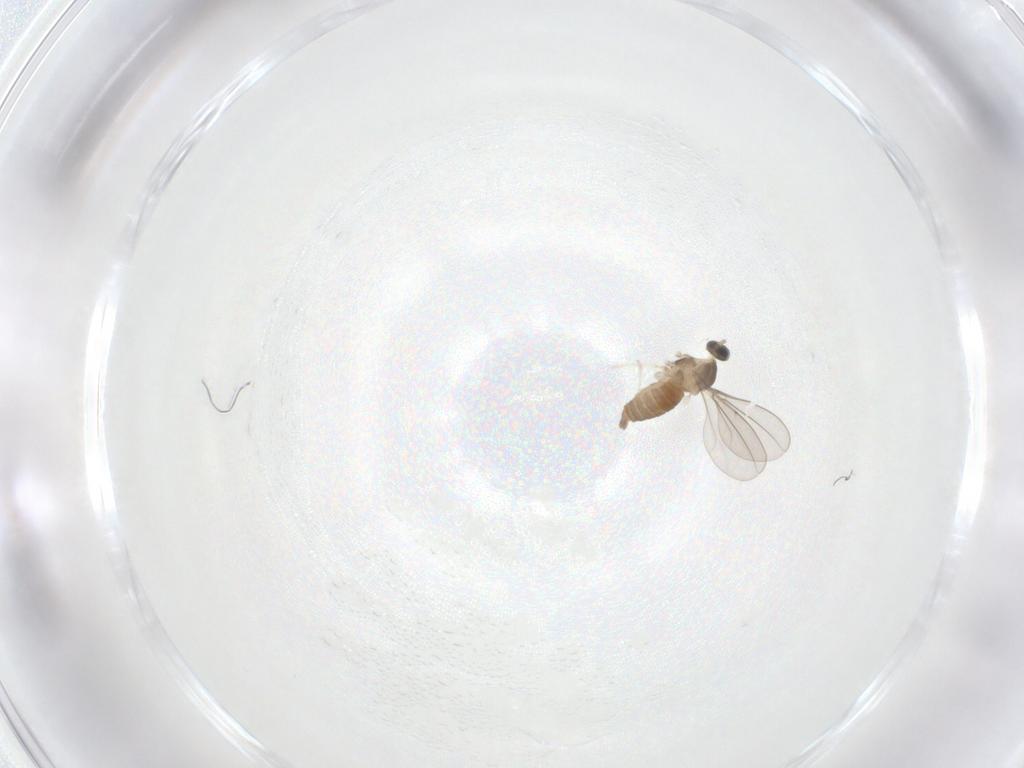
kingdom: Animalia
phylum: Arthropoda
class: Insecta
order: Diptera
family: Cecidomyiidae
